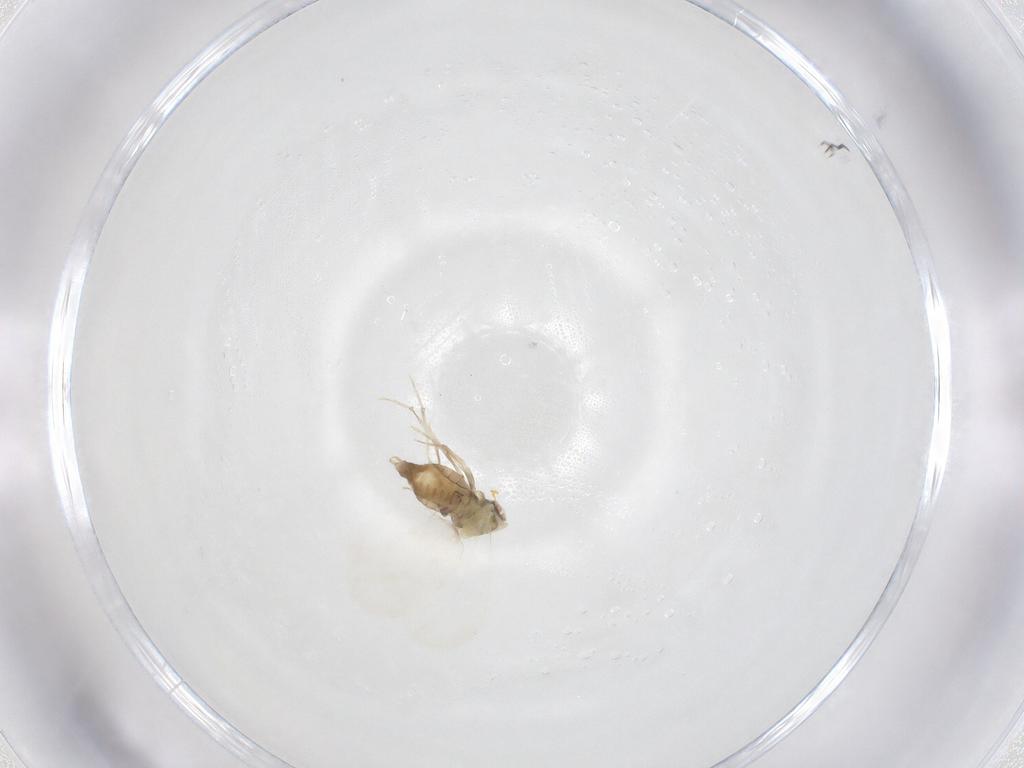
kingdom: Animalia
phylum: Arthropoda
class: Insecta
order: Hemiptera
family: Aleyrodidae
